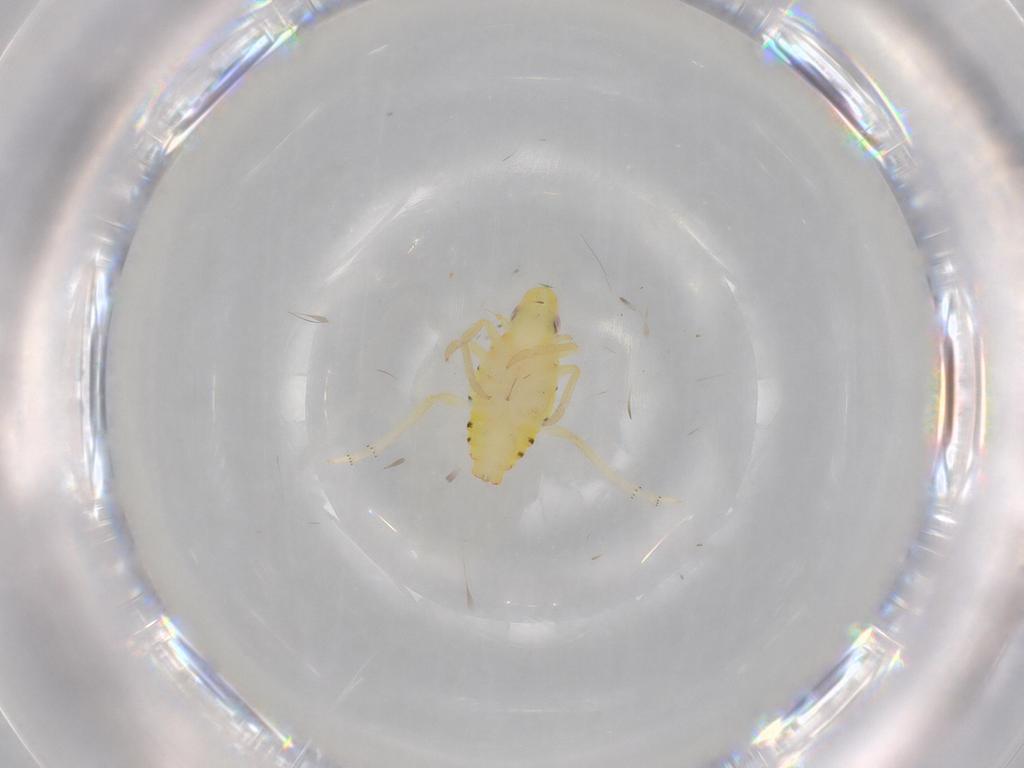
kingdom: Animalia
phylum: Arthropoda
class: Insecta
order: Hemiptera
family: Tropiduchidae
